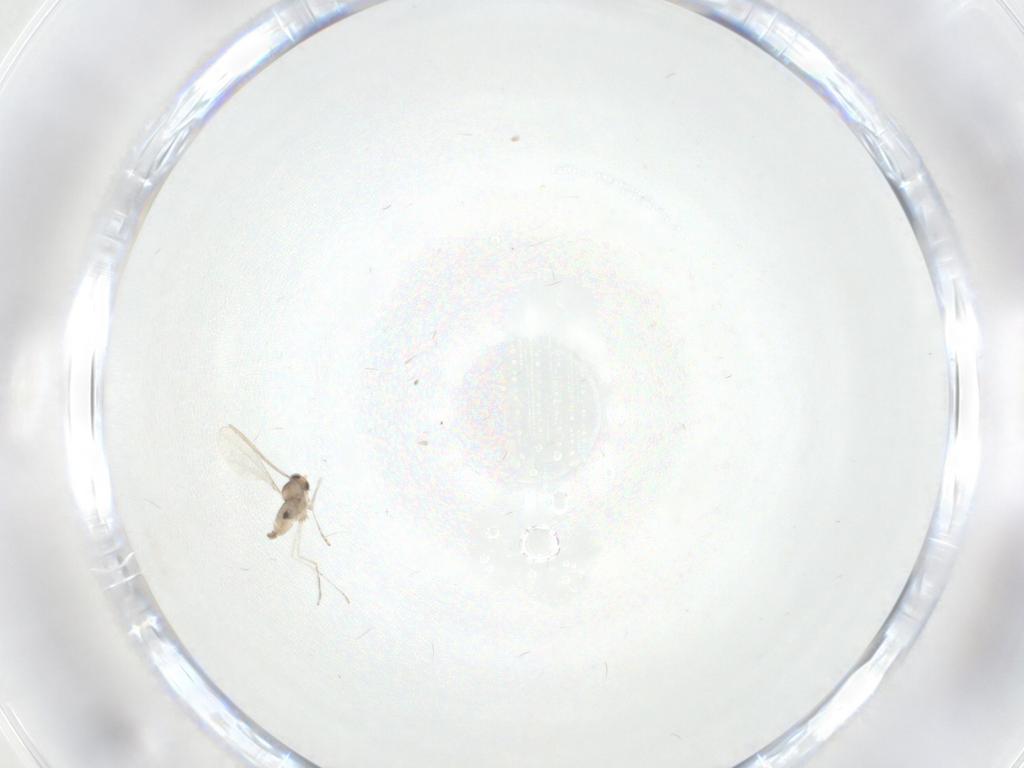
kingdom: Animalia
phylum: Arthropoda
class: Insecta
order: Diptera
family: Cecidomyiidae
